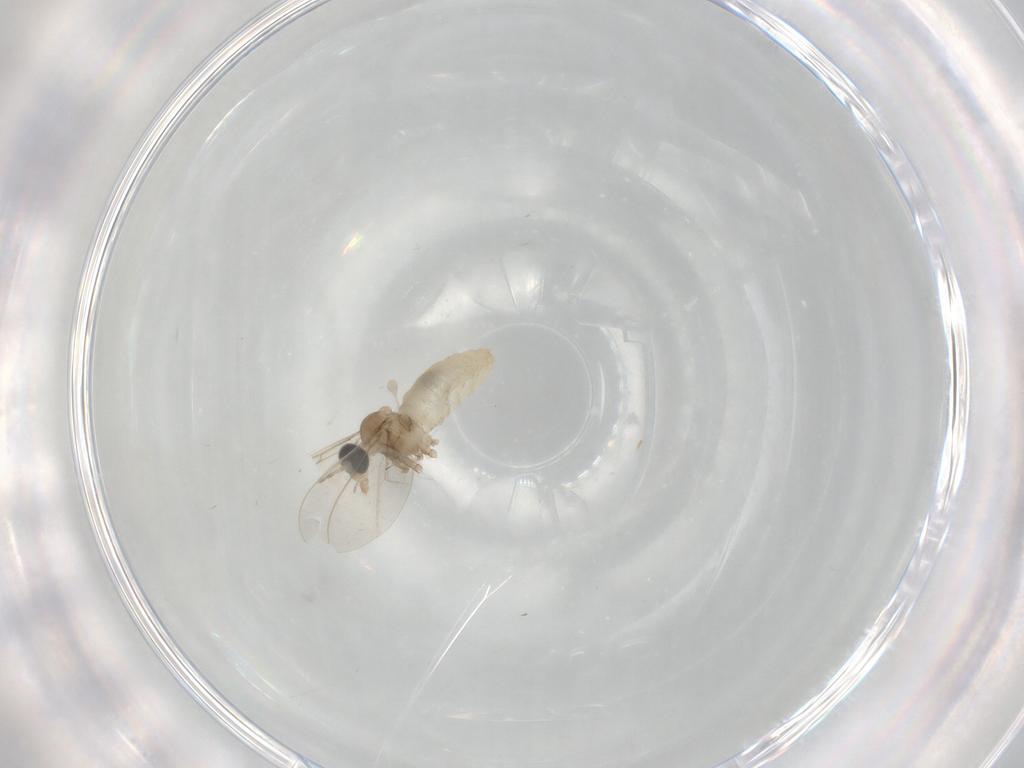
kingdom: Animalia
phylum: Arthropoda
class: Insecta
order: Diptera
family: Cecidomyiidae
